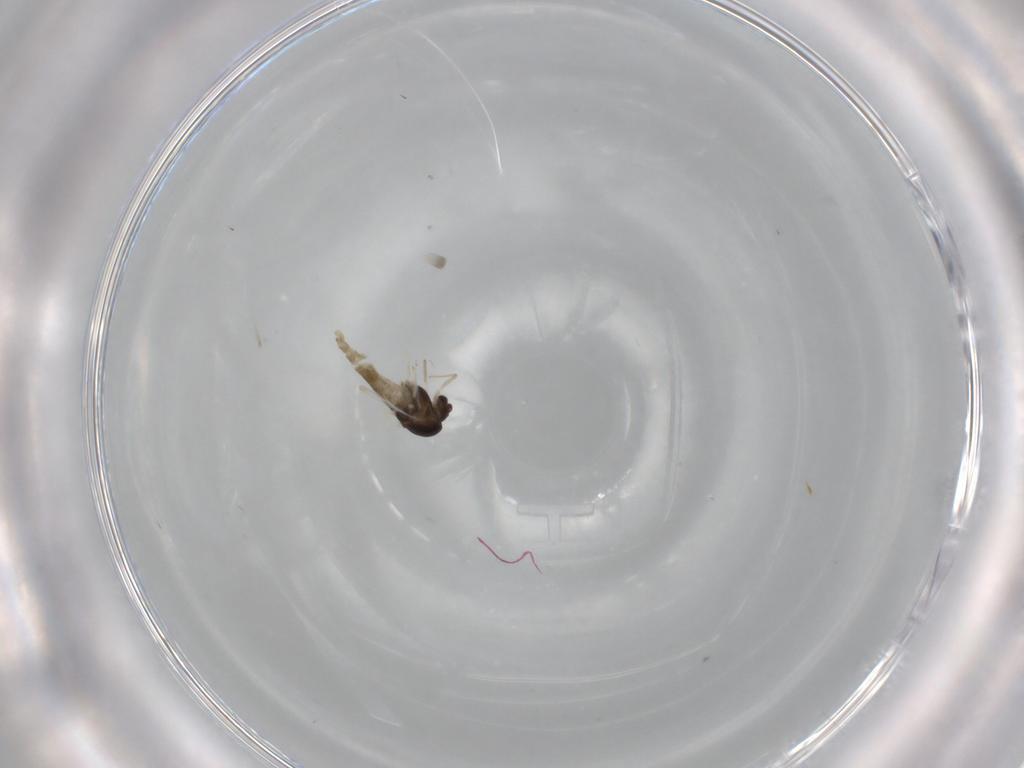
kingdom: Animalia
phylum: Arthropoda
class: Insecta
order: Diptera
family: Chironomidae
